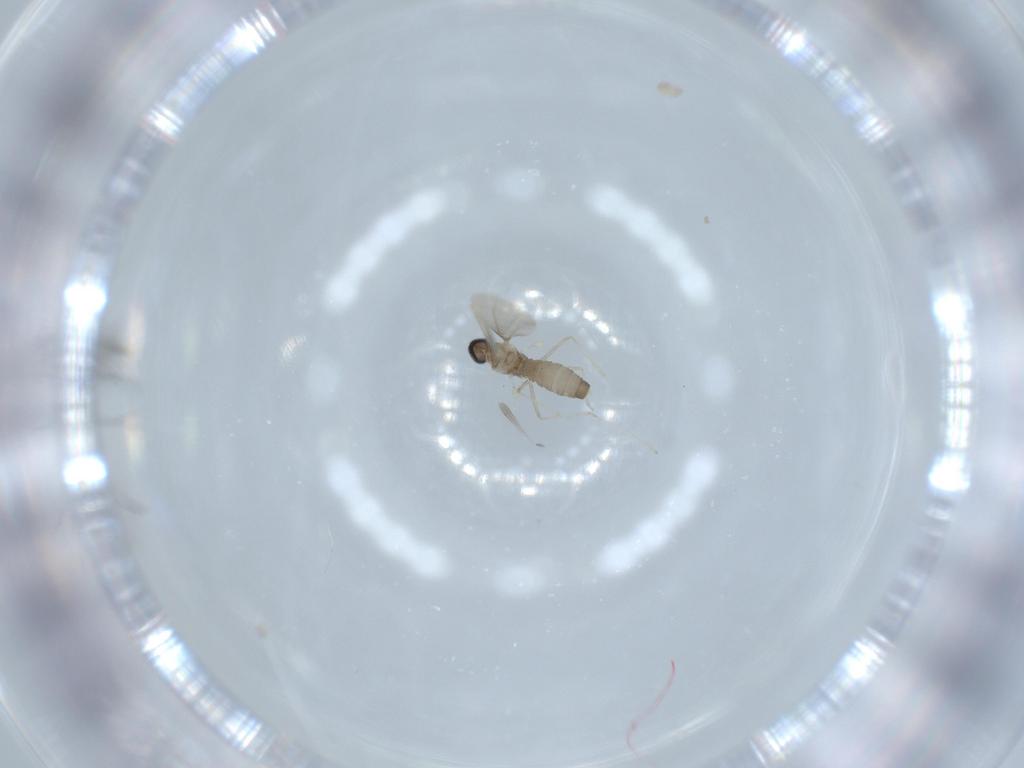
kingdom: Animalia
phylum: Arthropoda
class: Insecta
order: Diptera
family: Cecidomyiidae
